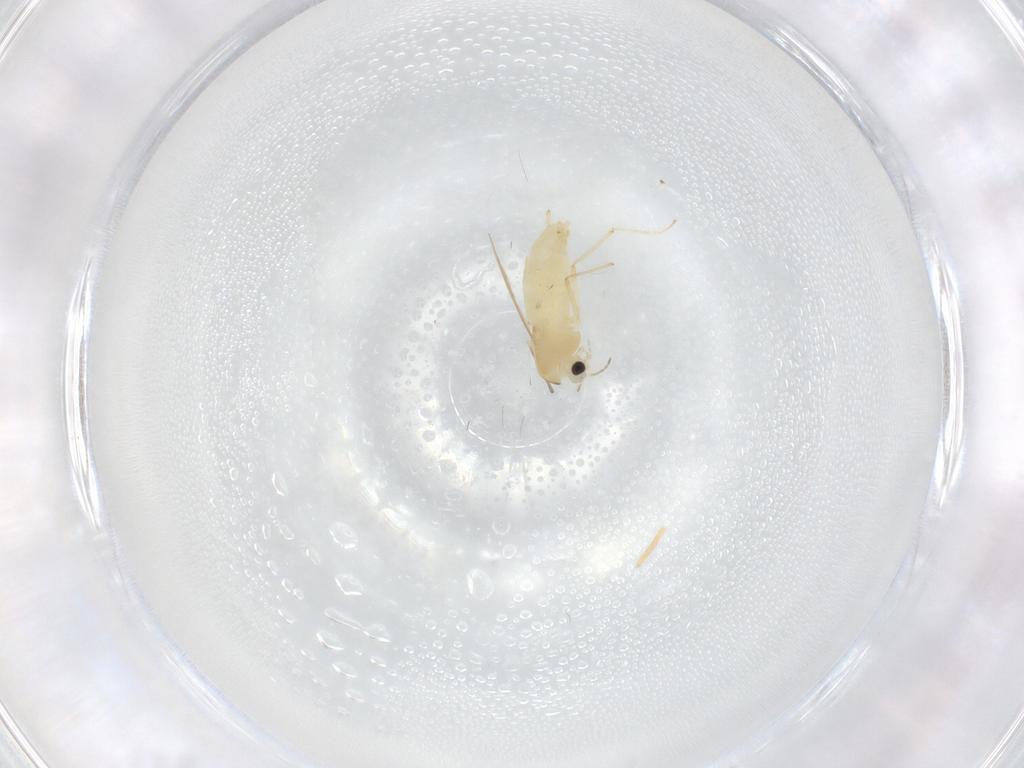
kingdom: Animalia
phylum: Arthropoda
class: Insecta
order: Diptera
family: Chironomidae
